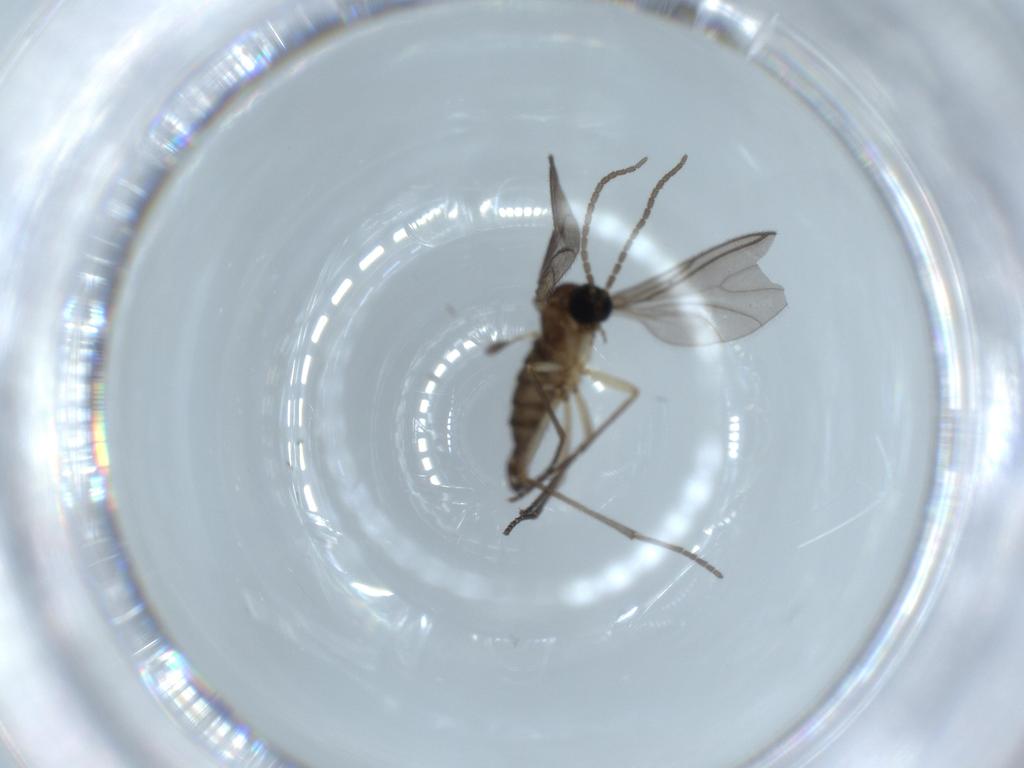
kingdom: Animalia
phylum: Arthropoda
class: Insecta
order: Diptera
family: Sciaridae
